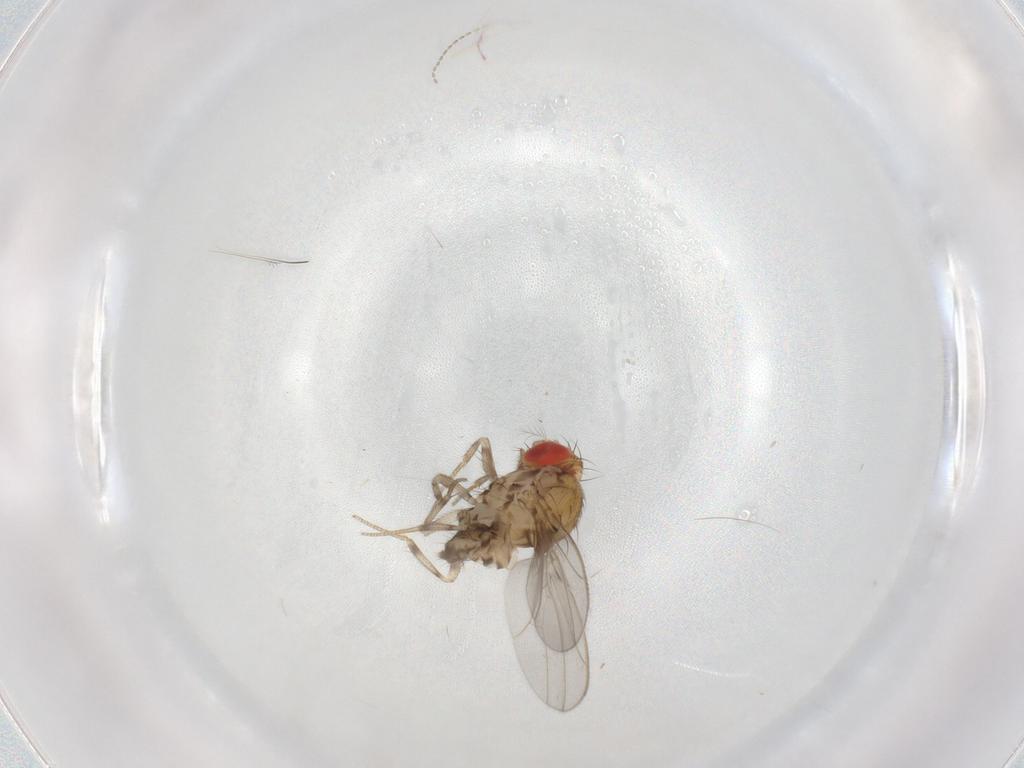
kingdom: Animalia
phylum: Arthropoda
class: Insecta
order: Diptera
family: Drosophilidae
